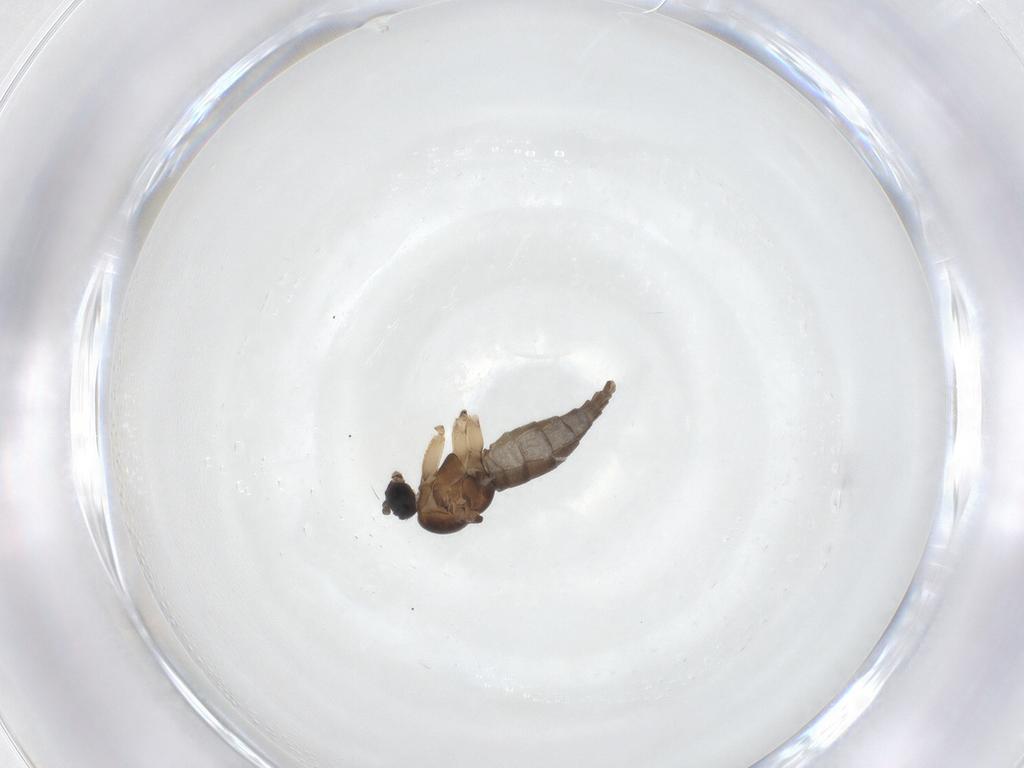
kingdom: Animalia
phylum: Arthropoda
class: Insecta
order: Diptera
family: Sciaridae
